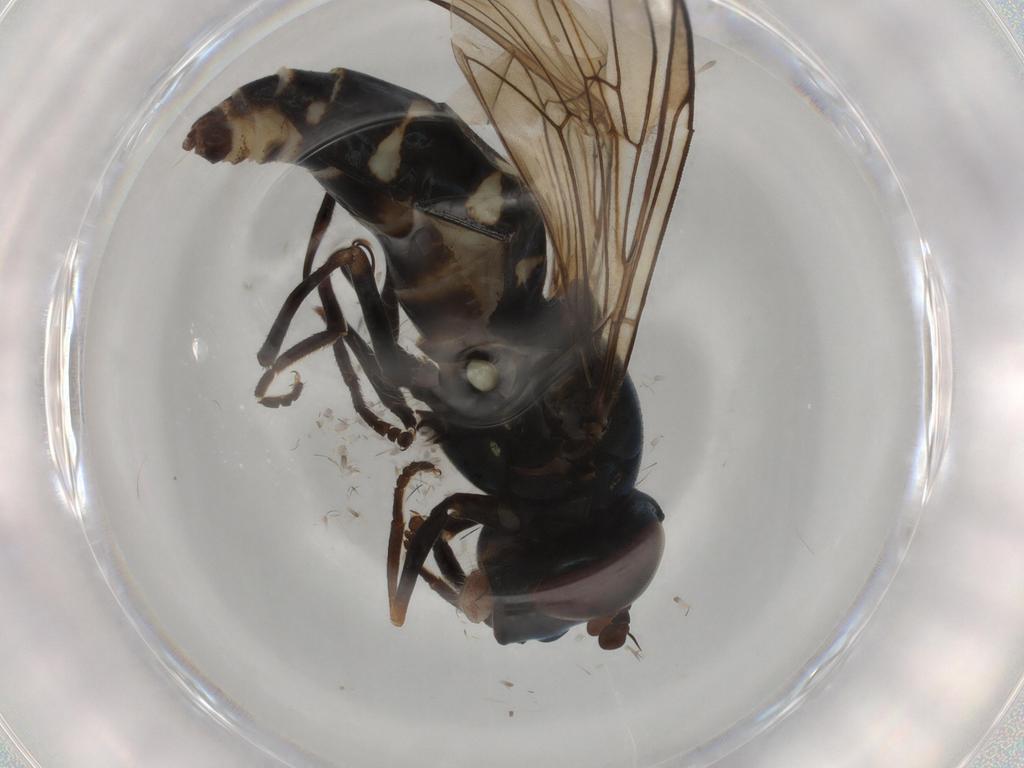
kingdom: Animalia
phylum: Arthropoda
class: Insecta
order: Diptera
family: Syrphidae
